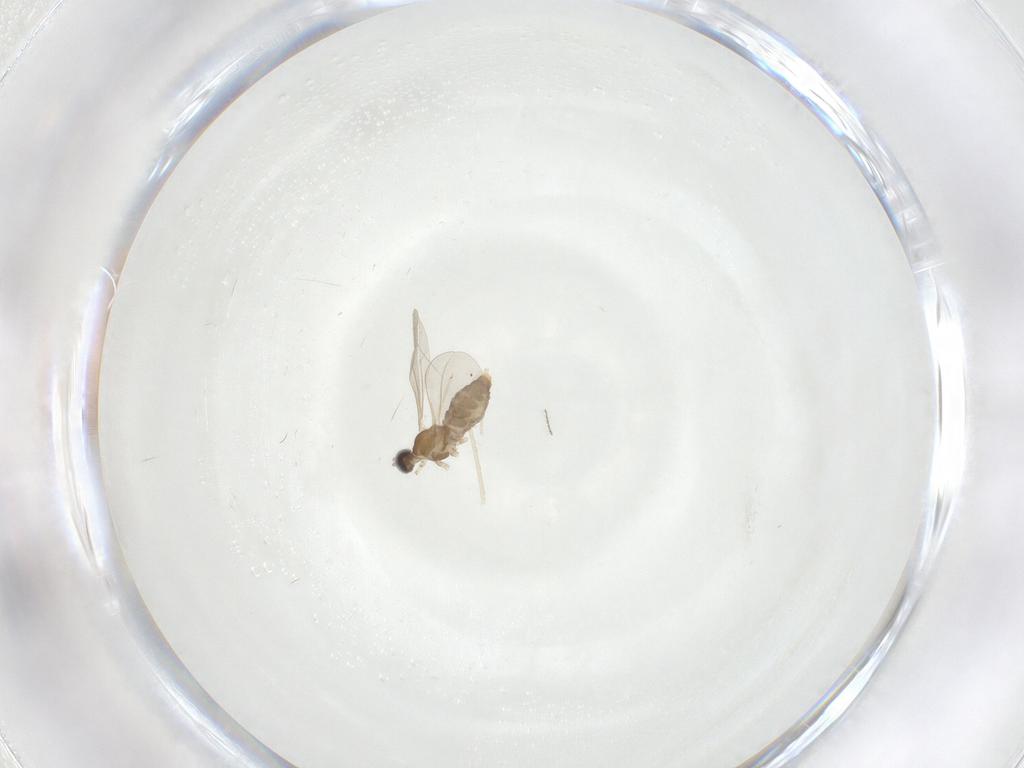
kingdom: Animalia
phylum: Arthropoda
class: Insecta
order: Diptera
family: Cecidomyiidae
